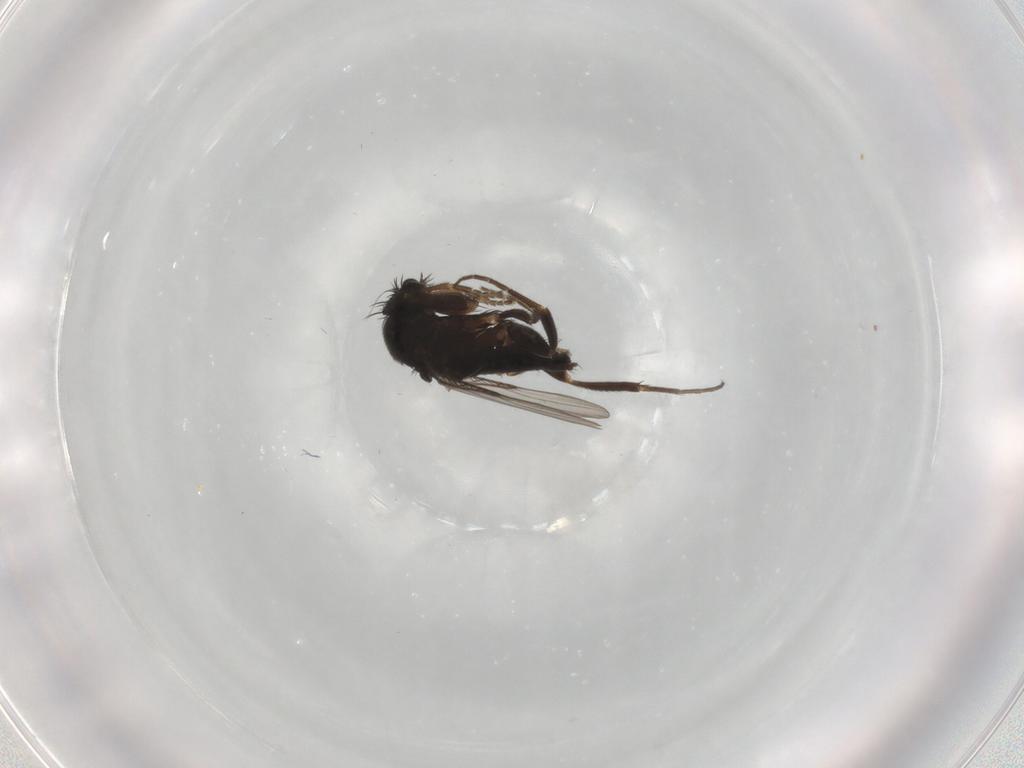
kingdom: Animalia
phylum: Arthropoda
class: Insecta
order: Diptera
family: Phoridae
